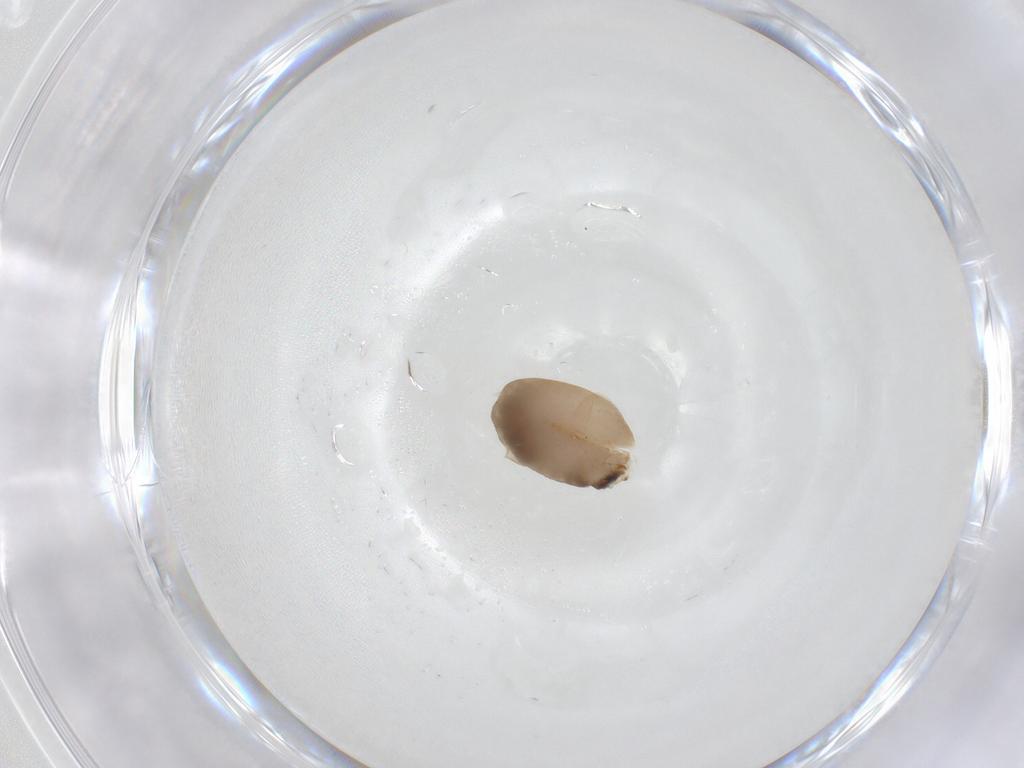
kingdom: Animalia
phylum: Arthropoda
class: Insecta
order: Hymenoptera
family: Dryinidae
